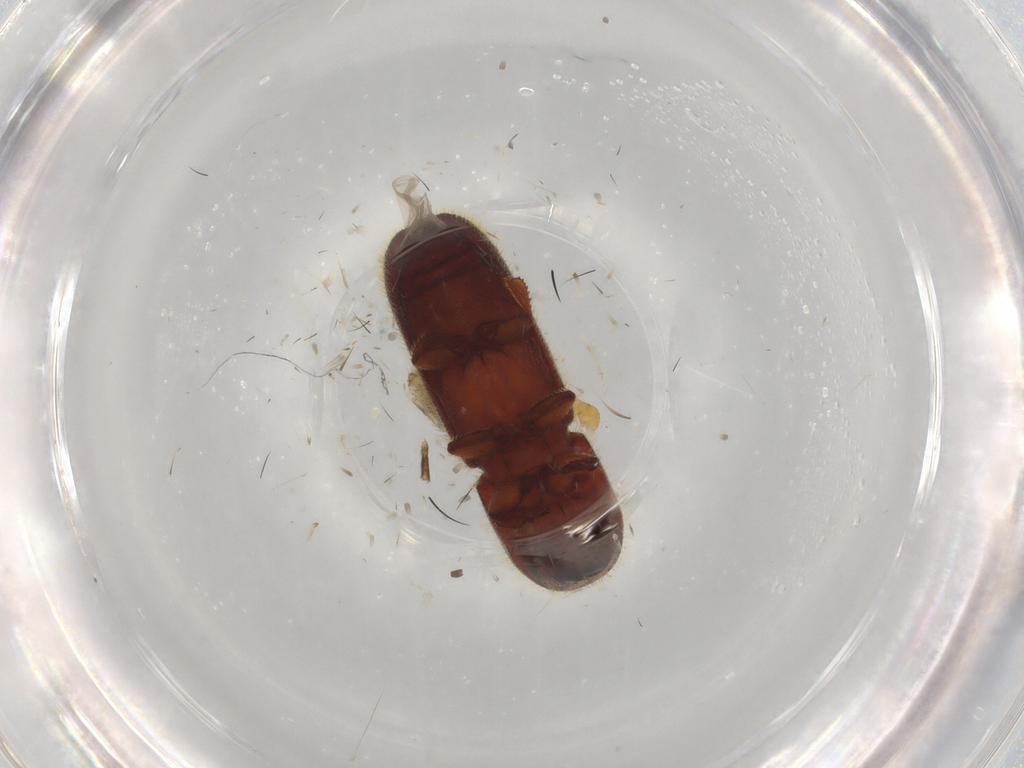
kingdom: Animalia
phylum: Arthropoda
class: Insecta
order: Coleoptera
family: Curculionidae
